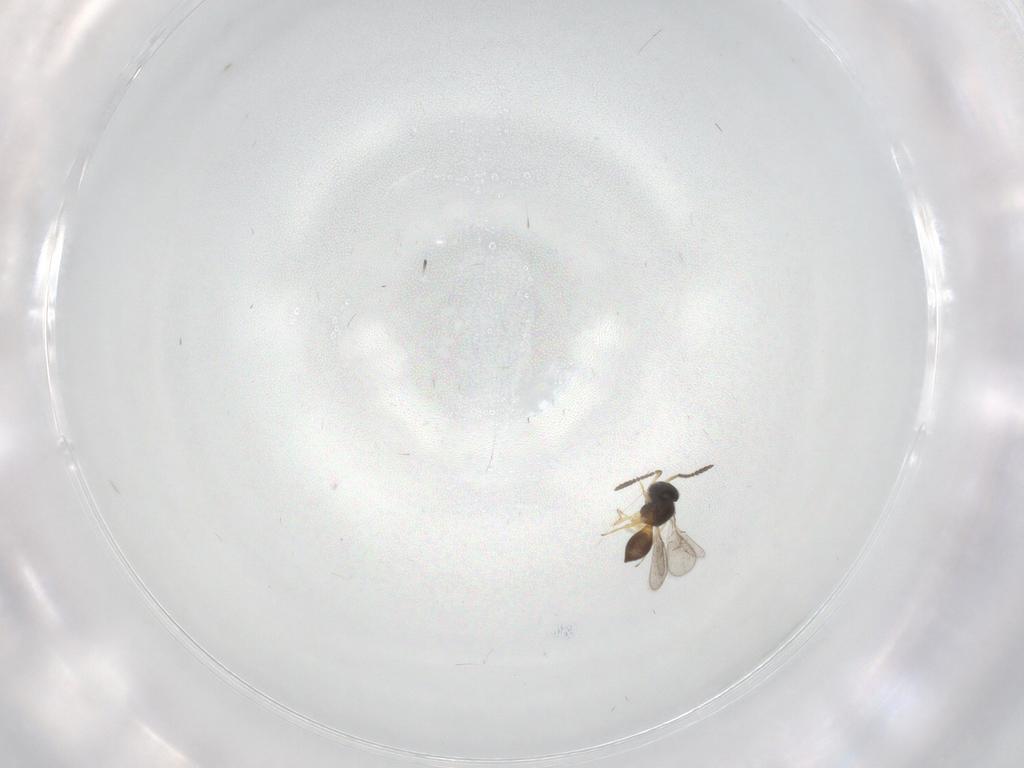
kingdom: Animalia
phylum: Arthropoda
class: Insecta
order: Hymenoptera
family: Scelionidae
